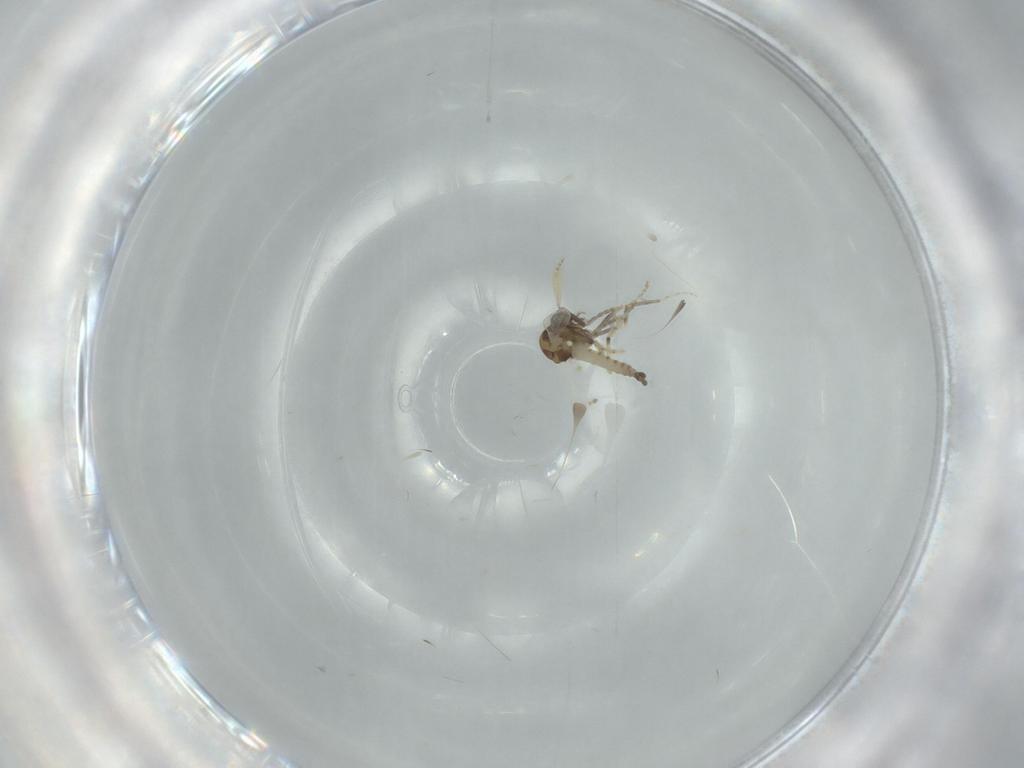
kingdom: Animalia
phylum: Arthropoda
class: Insecta
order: Diptera
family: Ceratopogonidae
